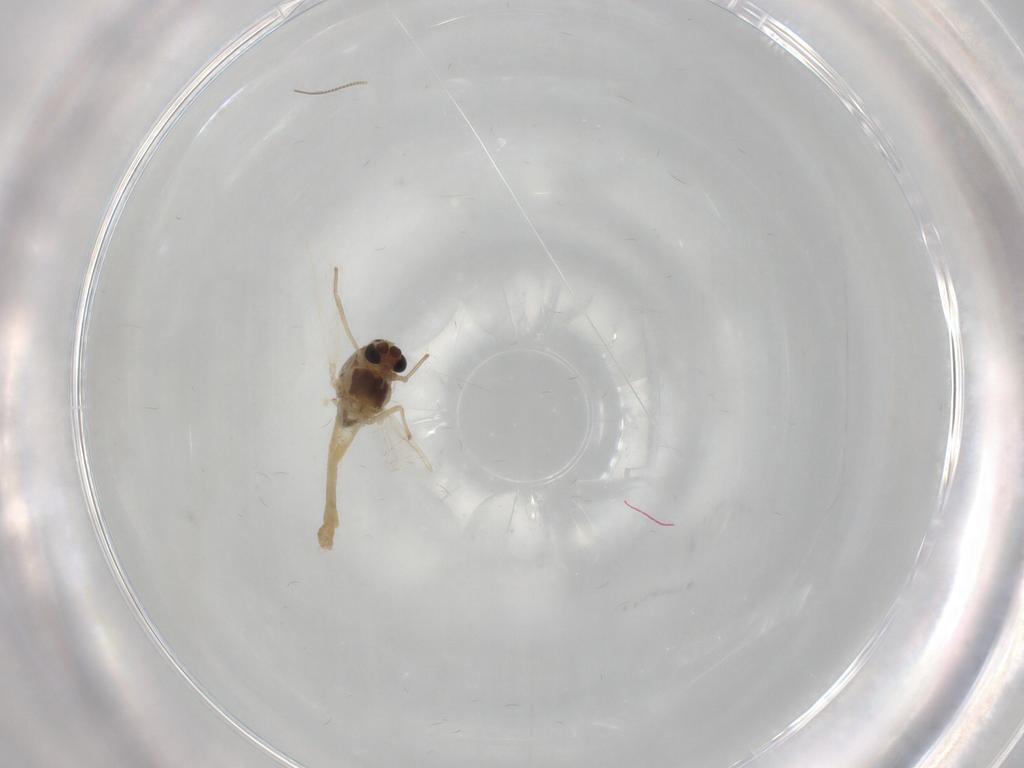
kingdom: Animalia
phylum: Arthropoda
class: Insecta
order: Diptera
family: Chironomidae
